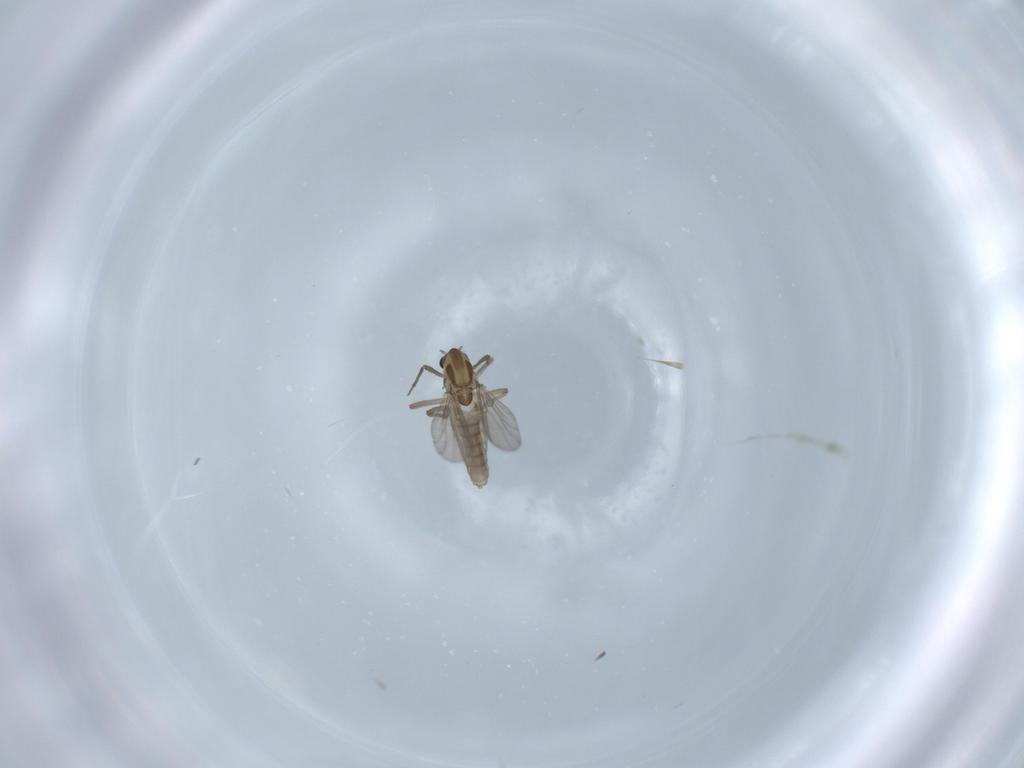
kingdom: Animalia
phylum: Arthropoda
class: Insecta
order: Diptera
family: Chironomidae
